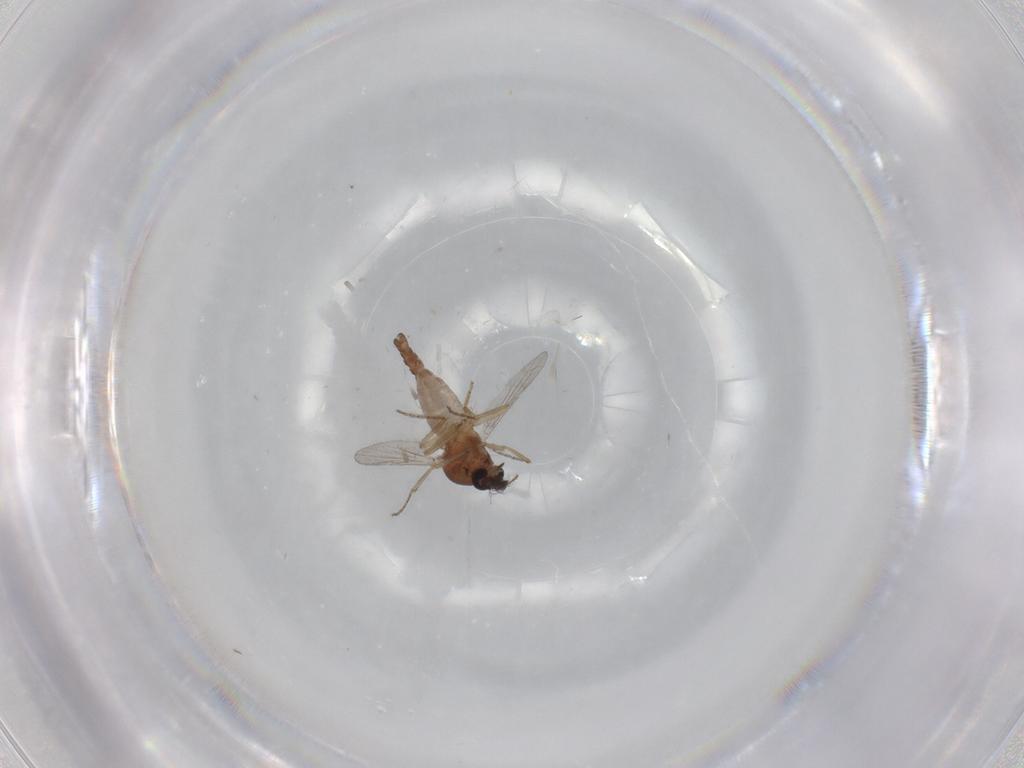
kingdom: Animalia
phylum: Arthropoda
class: Insecta
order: Diptera
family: Ceratopogonidae
